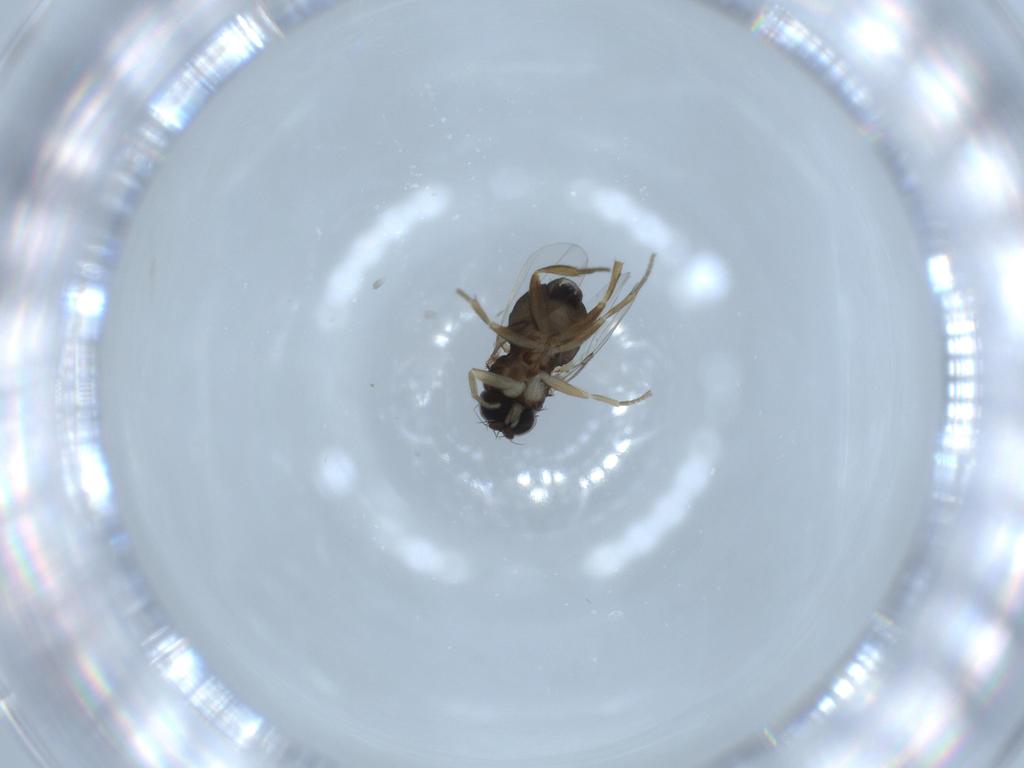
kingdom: Animalia
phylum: Arthropoda
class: Insecta
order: Diptera
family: Phoridae
